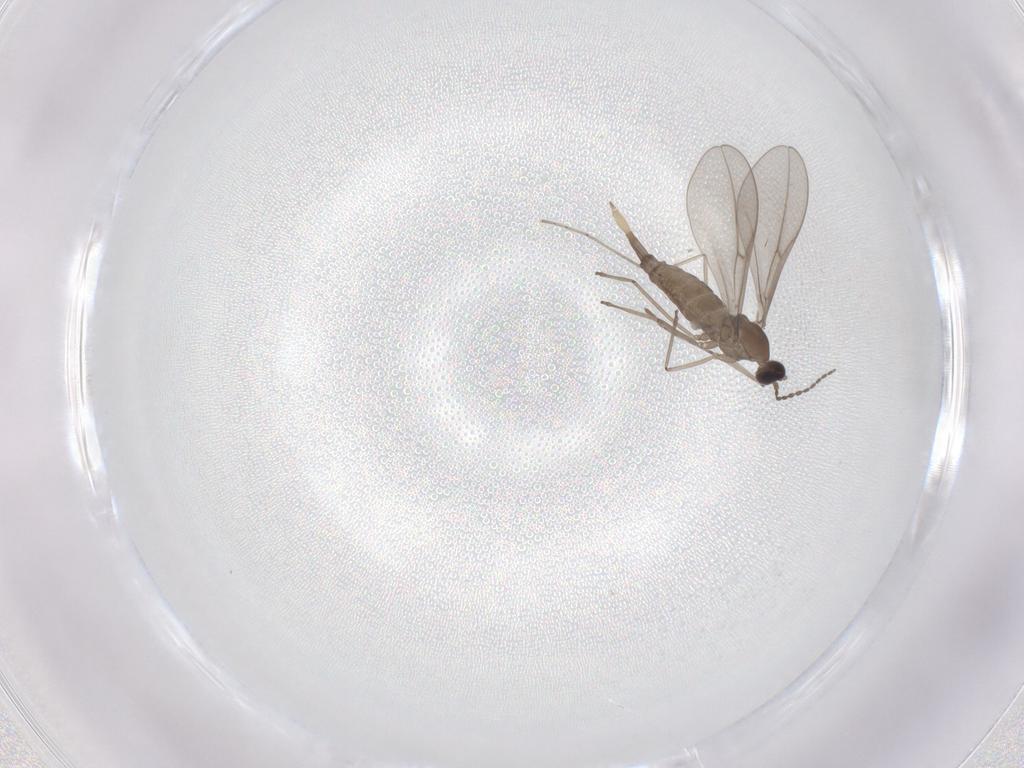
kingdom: Animalia
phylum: Arthropoda
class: Insecta
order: Diptera
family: Cecidomyiidae
